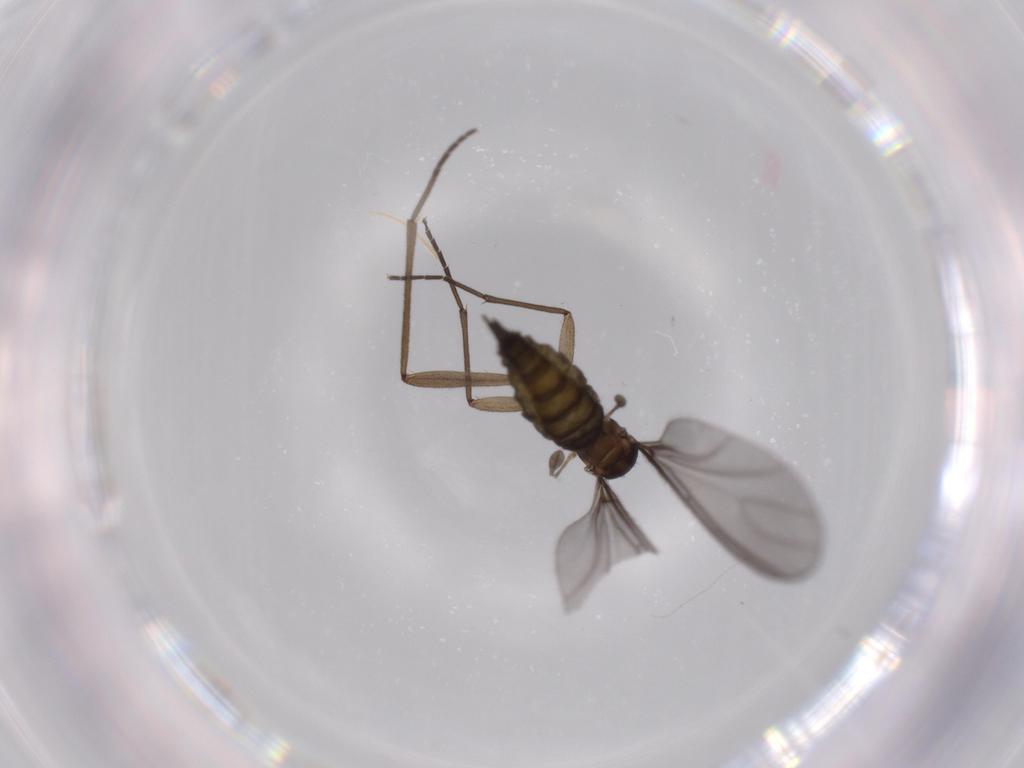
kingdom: Animalia
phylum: Arthropoda
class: Insecta
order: Diptera
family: Sciaridae
